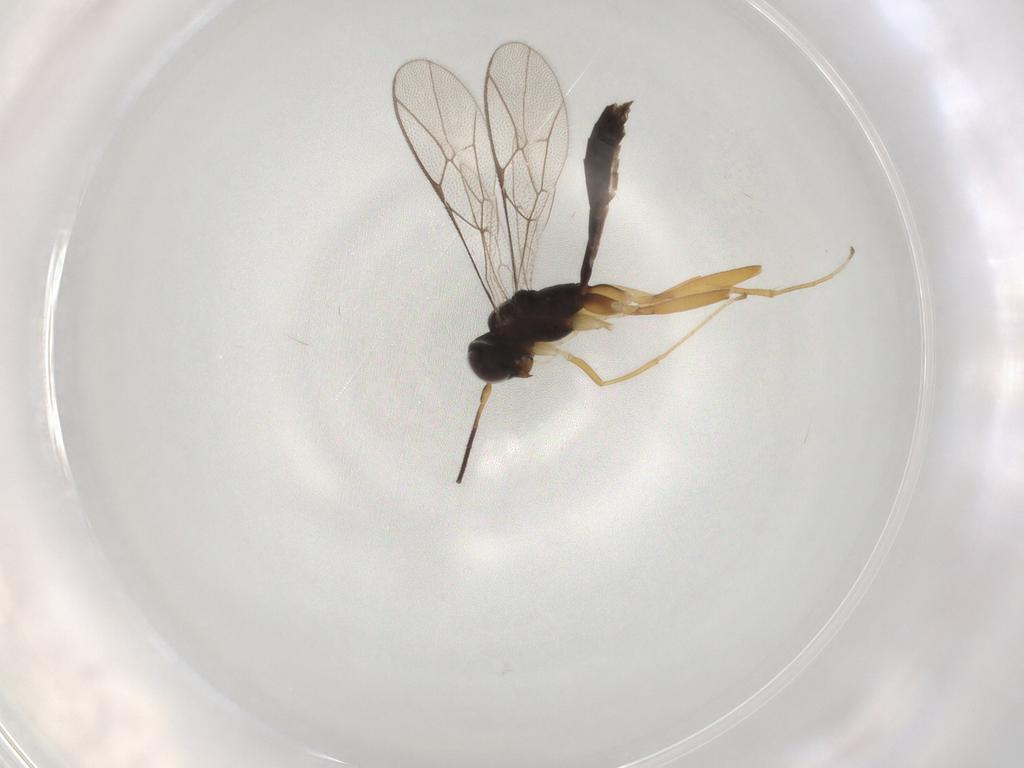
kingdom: Animalia
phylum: Arthropoda
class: Insecta
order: Hymenoptera
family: Ichneumonidae
